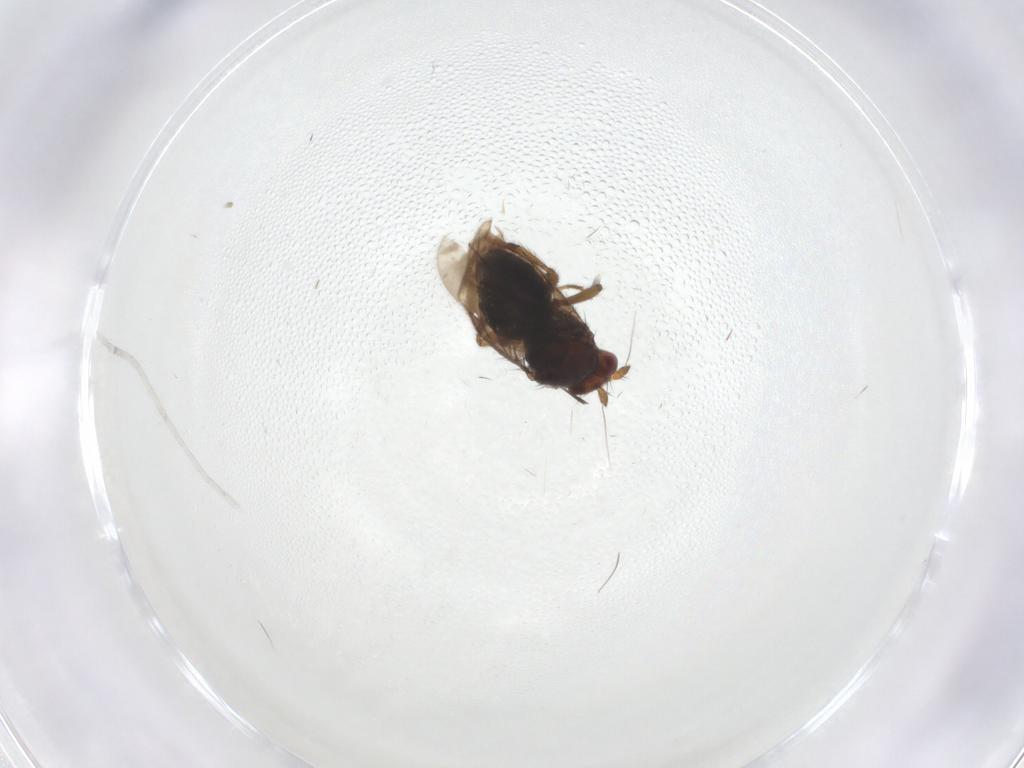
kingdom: Animalia
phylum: Arthropoda
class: Insecta
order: Diptera
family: Sphaeroceridae
